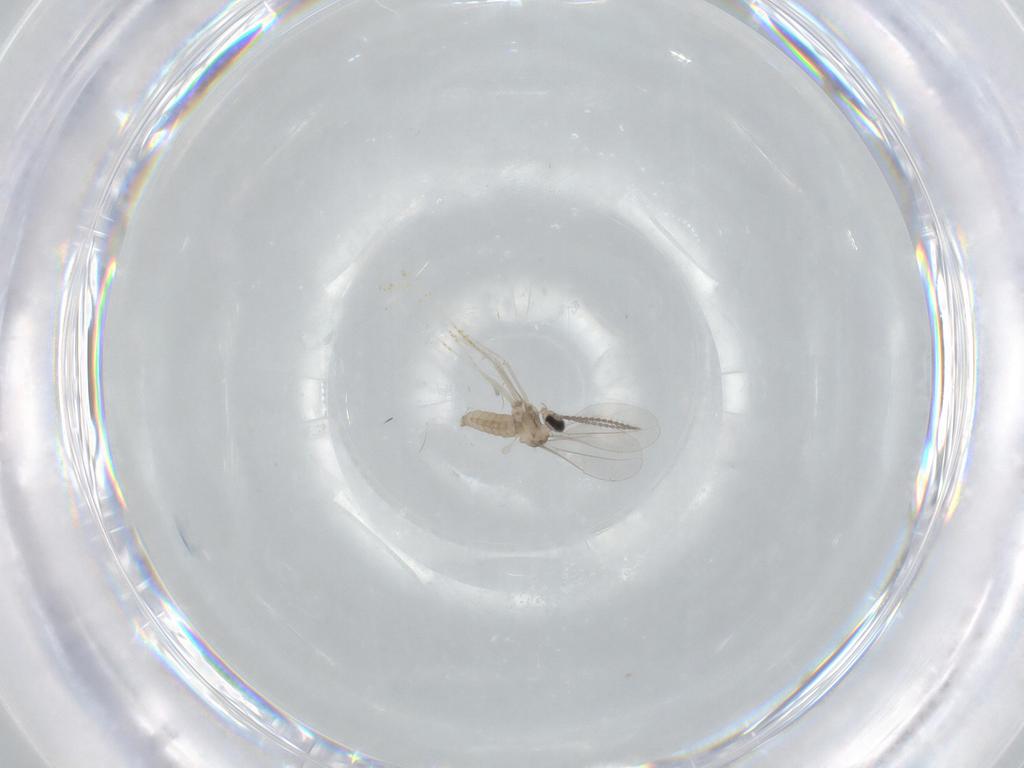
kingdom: Animalia
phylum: Arthropoda
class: Insecta
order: Diptera
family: Cecidomyiidae
